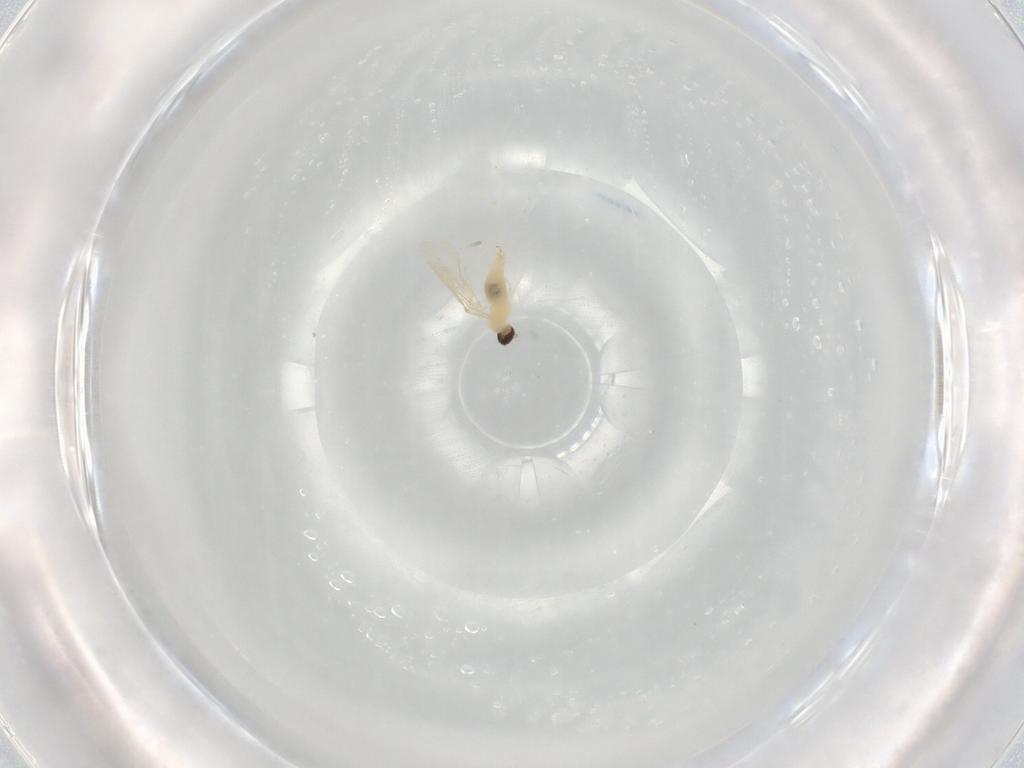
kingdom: Animalia
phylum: Arthropoda
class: Insecta
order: Diptera
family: Cecidomyiidae
